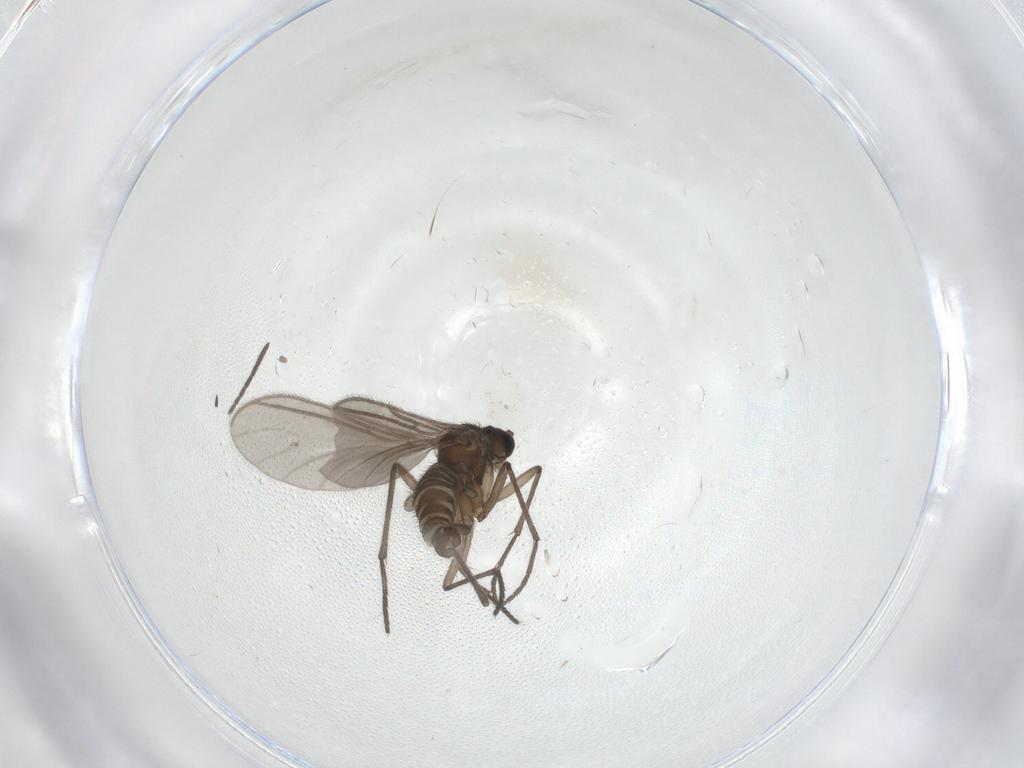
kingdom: Animalia
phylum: Arthropoda
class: Insecta
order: Diptera
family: Sciaridae
